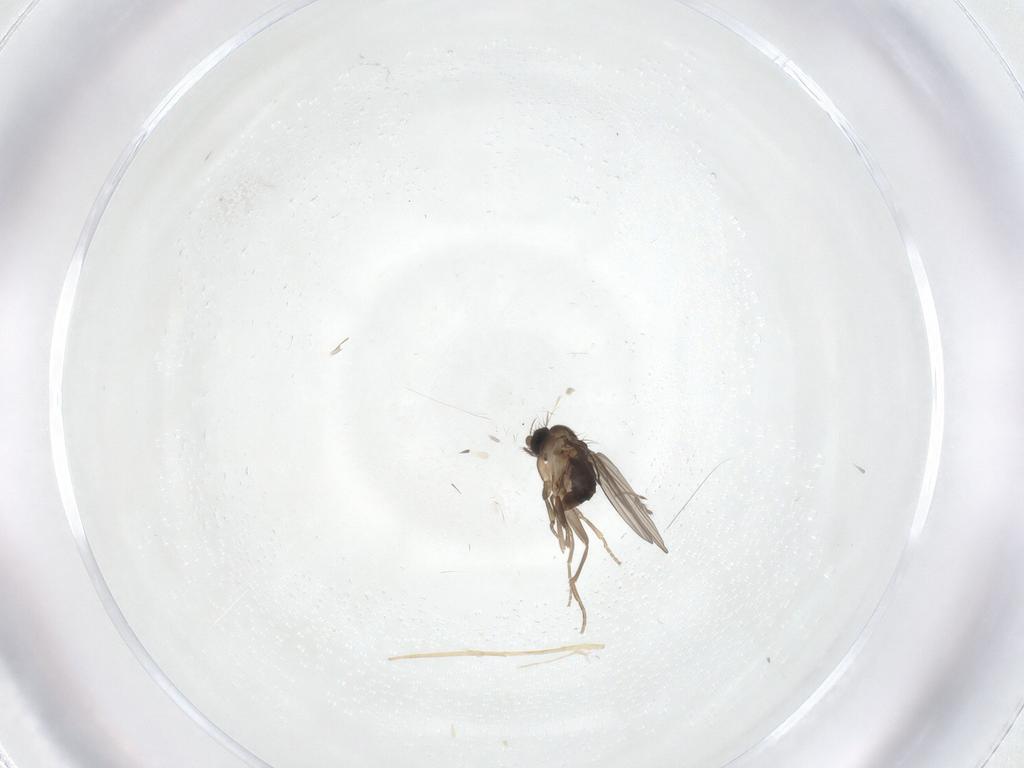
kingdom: Animalia
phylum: Arthropoda
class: Insecta
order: Diptera
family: Phoridae
